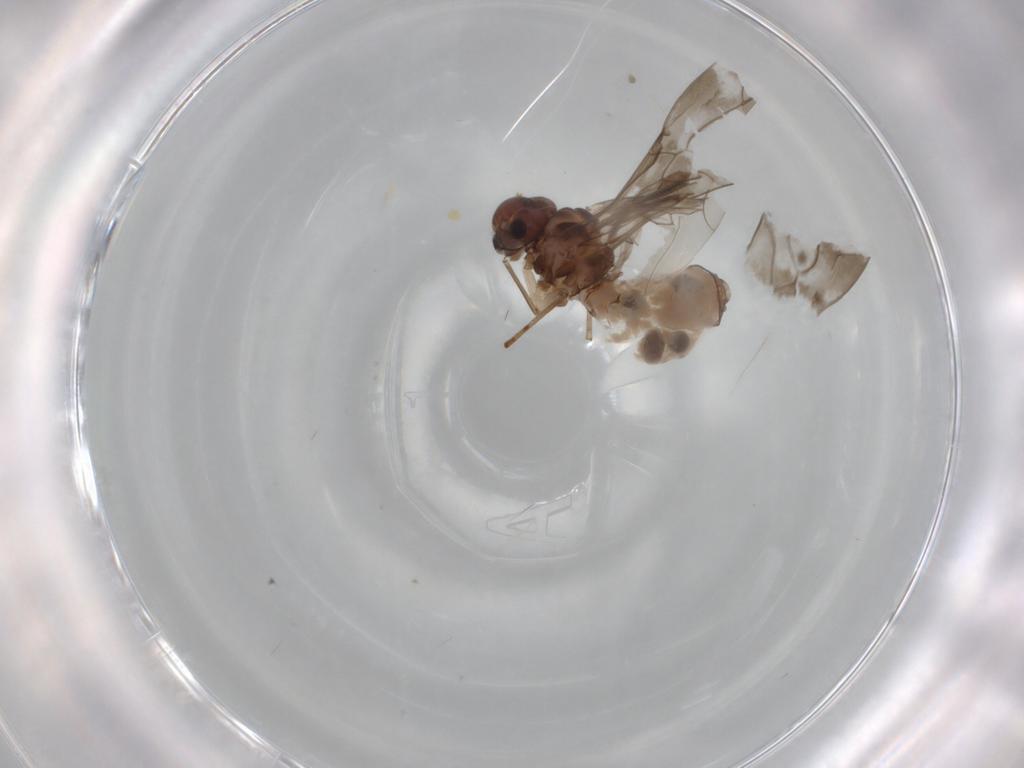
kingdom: Animalia
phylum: Arthropoda
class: Insecta
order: Psocodea
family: Peripsocidae
